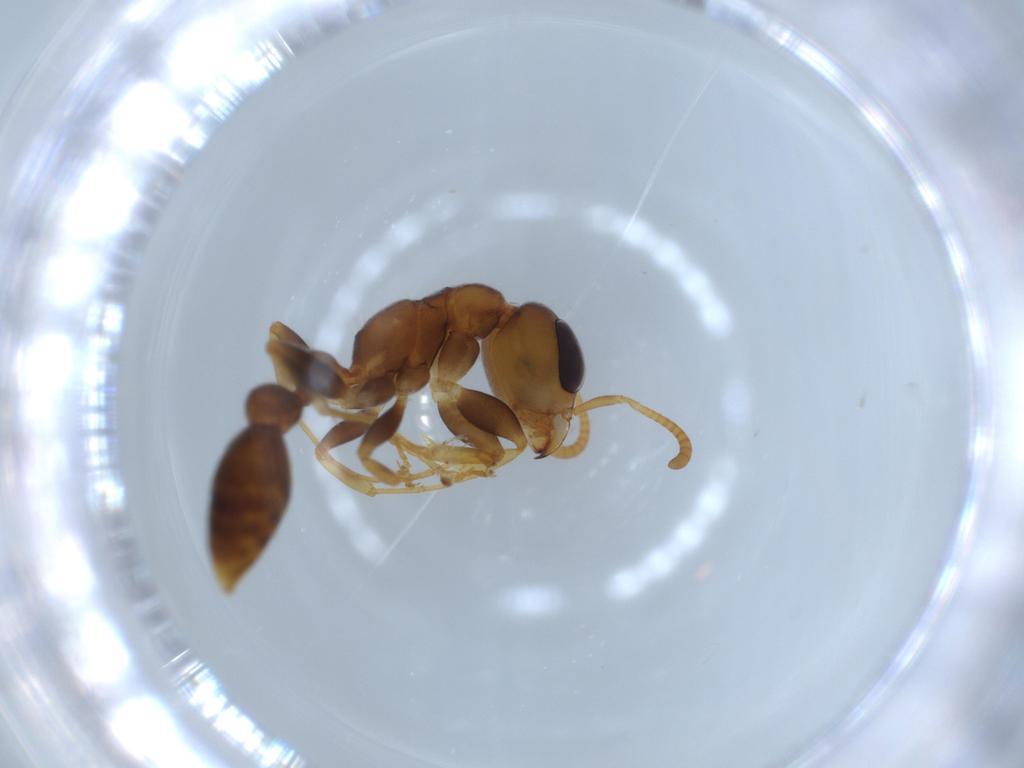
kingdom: Animalia
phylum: Arthropoda
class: Insecta
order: Hymenoptera
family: Formicidae
